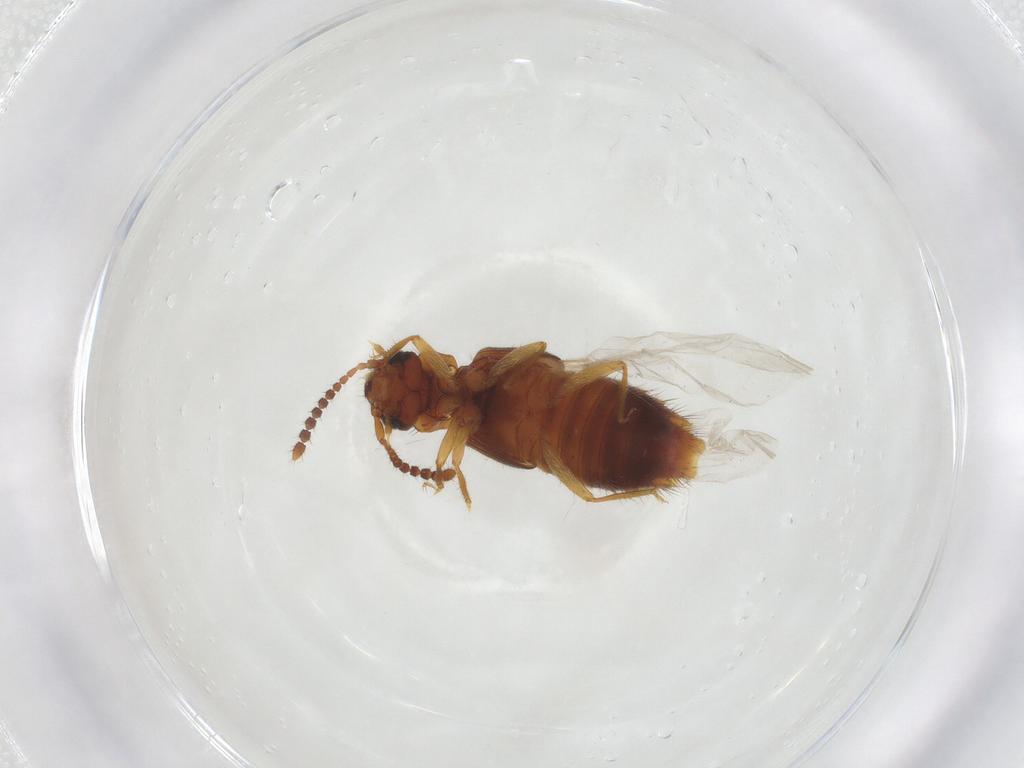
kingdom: Animalia
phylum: Arthropoda
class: Insecta
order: Coleoptera
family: Staphylinidae
